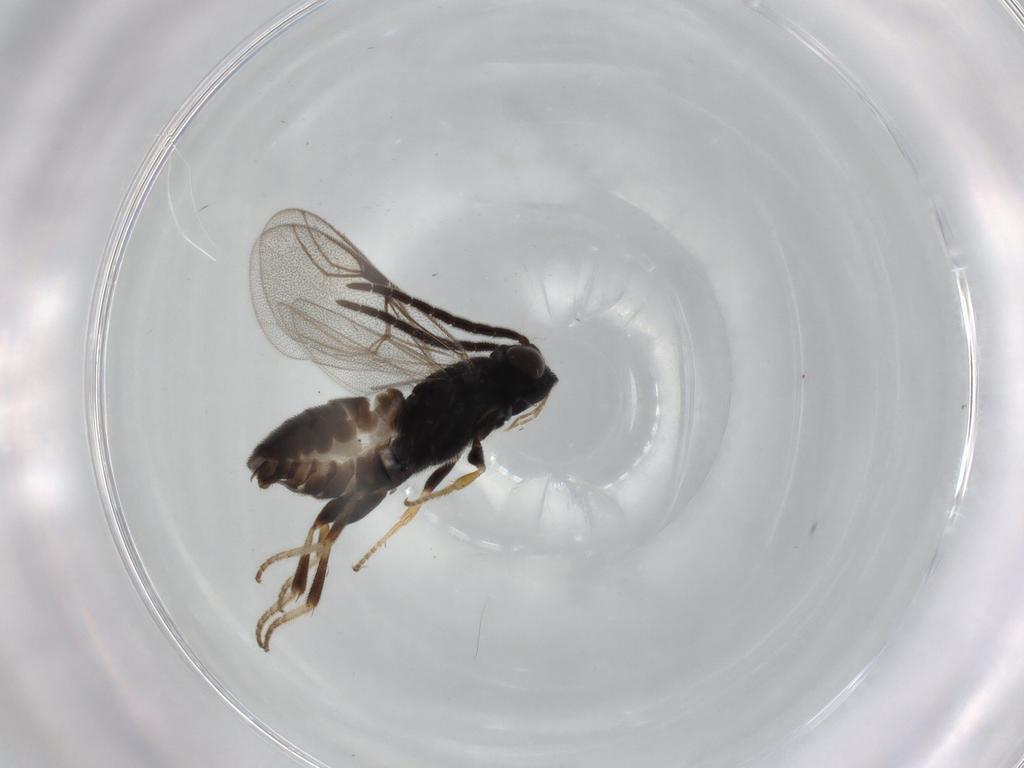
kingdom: Animalia
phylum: Arthropoda
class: Insecta
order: Hymenoptera
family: Dryinidae
